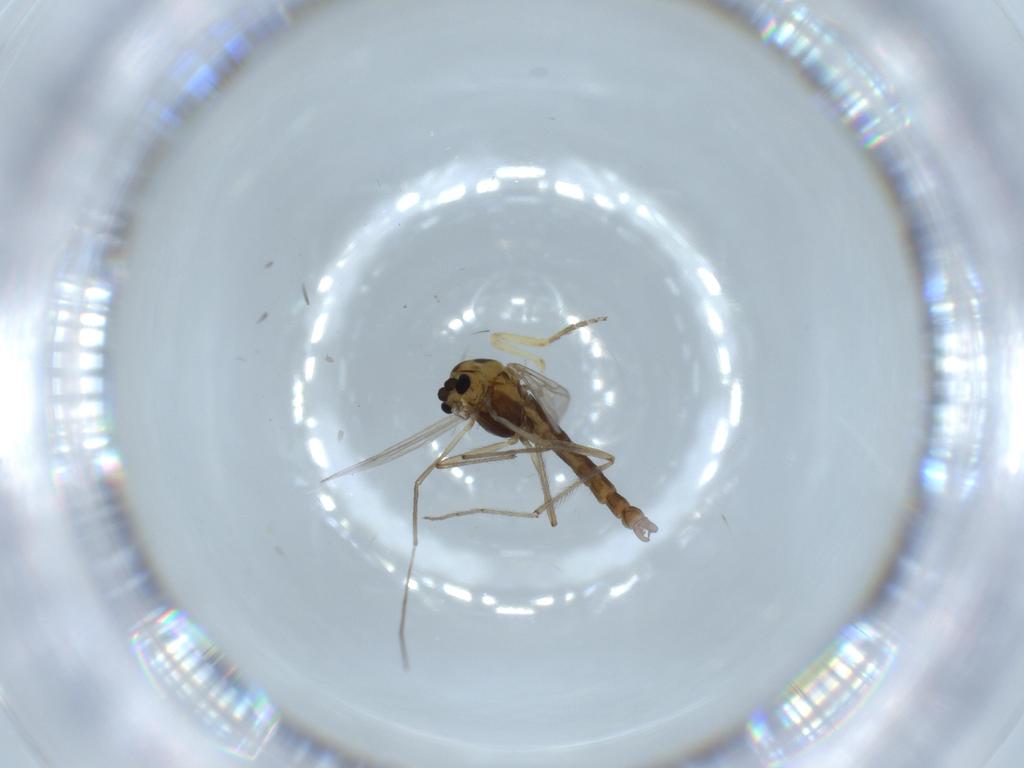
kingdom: Animalia
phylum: Arthropoda
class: Insecta
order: Diptera
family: Chironomidae
